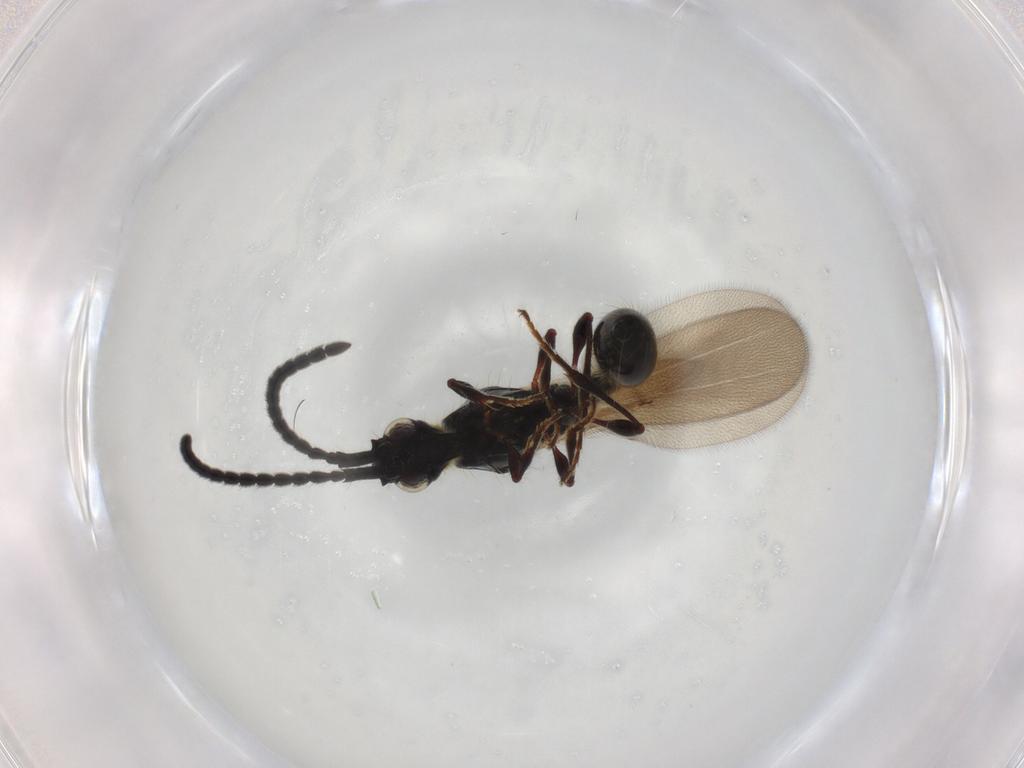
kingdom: Animalia
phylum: Arthropoda
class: Insecta
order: Hymenoptera
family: Diapriidae
